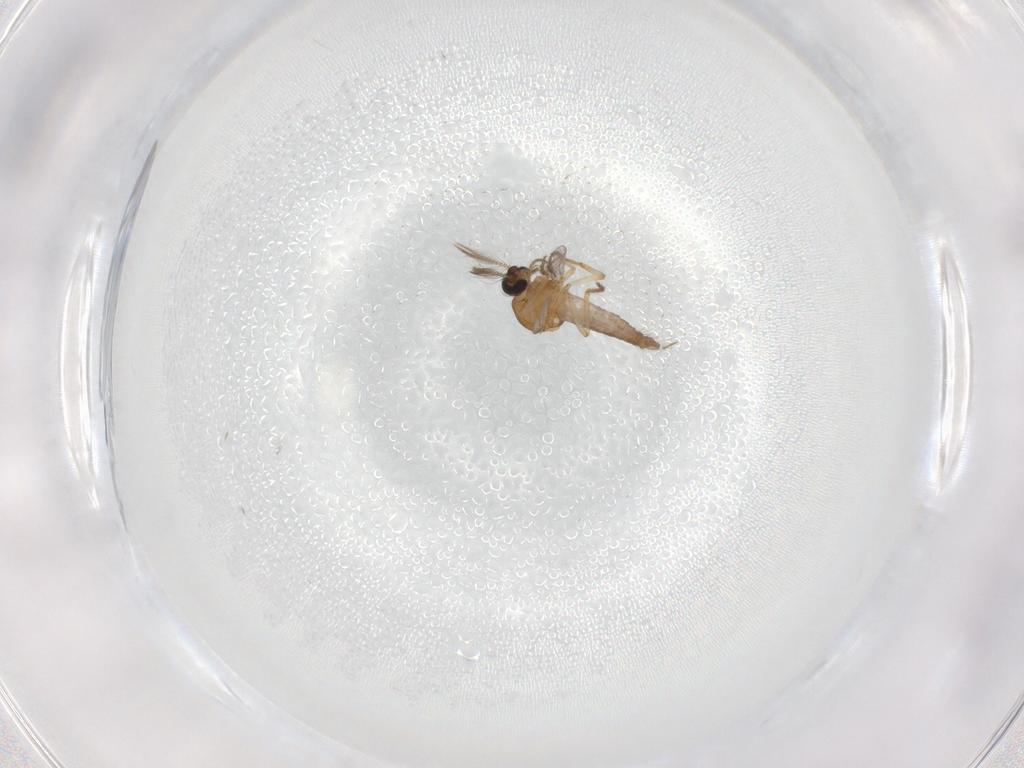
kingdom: Animalia
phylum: Arthropoda
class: Insecta
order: Diptera
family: Ceratopogonidae
